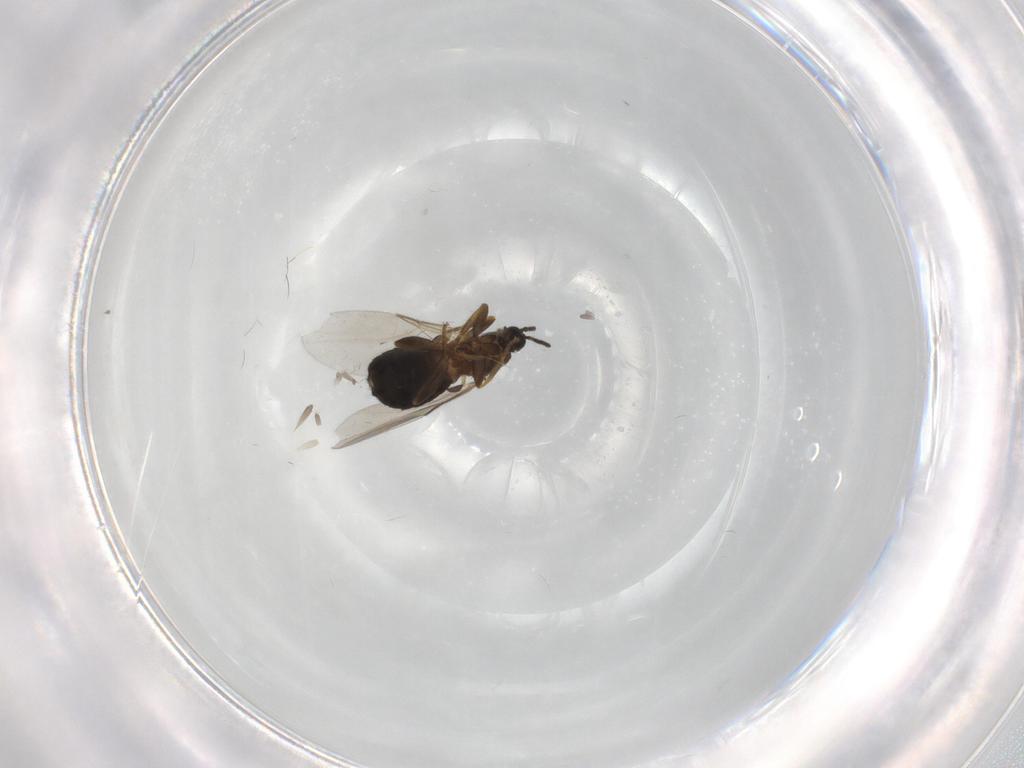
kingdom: Animalia
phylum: Arthropoda
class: Insecta
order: Diptera
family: Scatopsidae
